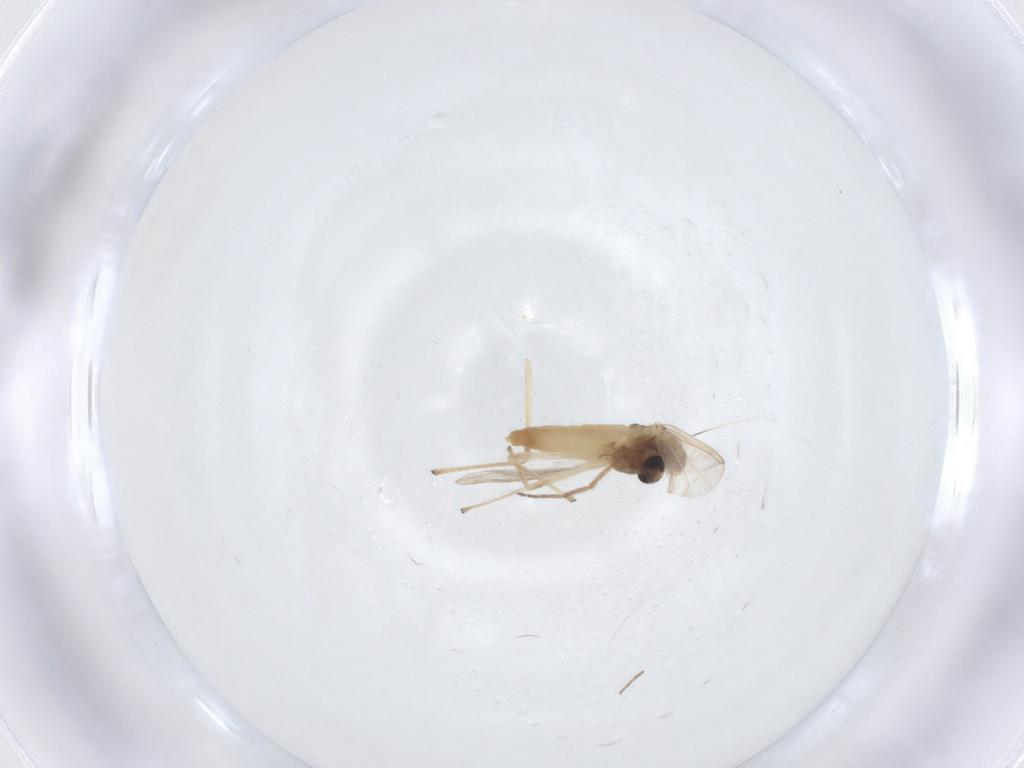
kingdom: Animalia
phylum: Arthropoda
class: Insecta
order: Diptera
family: Chironomidae
